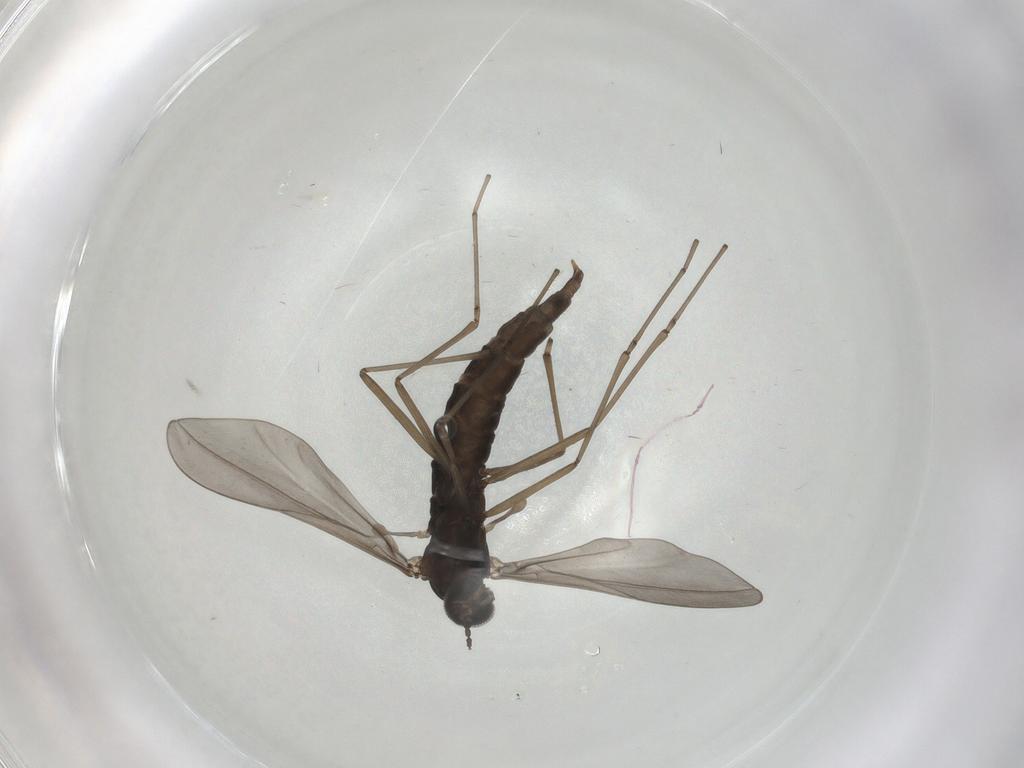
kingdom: Animalia
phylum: Arthropoda
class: Insecta
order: Diptera
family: Cecidomyiidae
